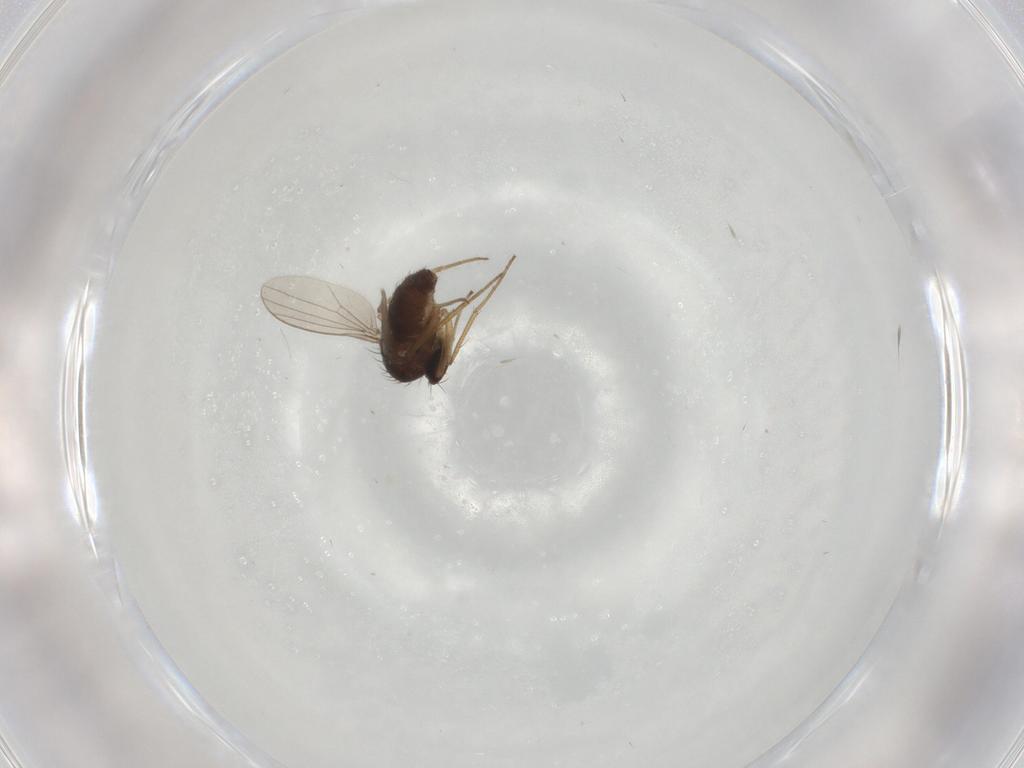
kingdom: Animalia
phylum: Arthropoda
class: Insecta
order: Diptera
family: Dolichopodidae
